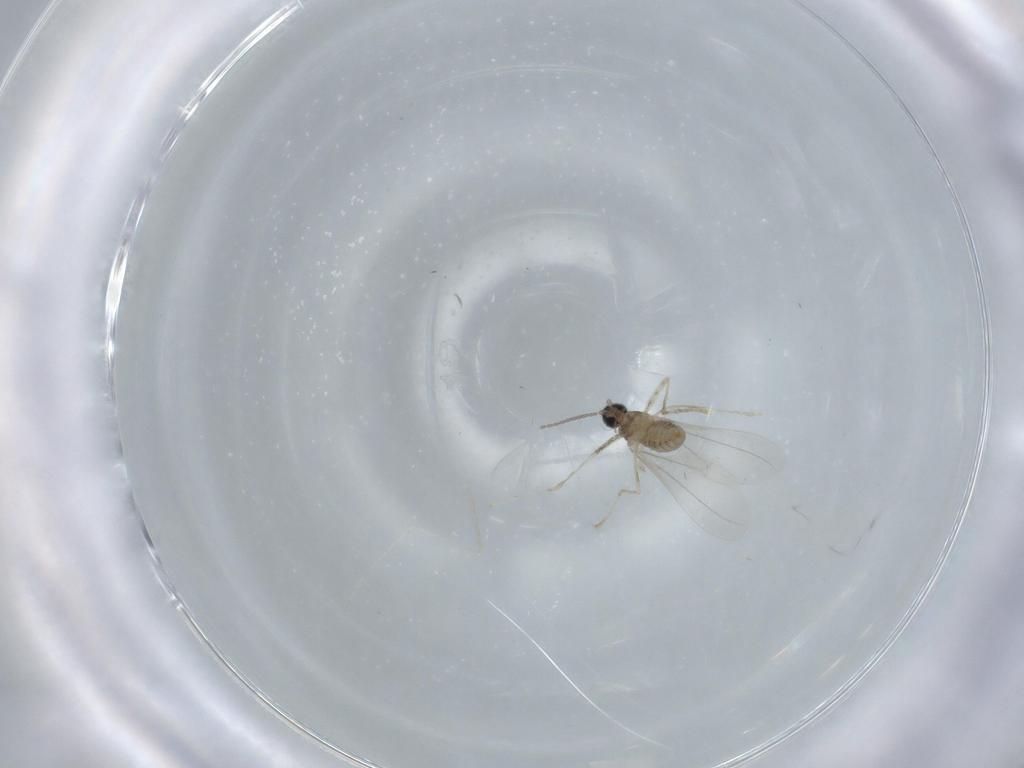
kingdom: Animalia
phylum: Arthropoda
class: Insecta
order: Diptera
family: Cecidomyiidae
